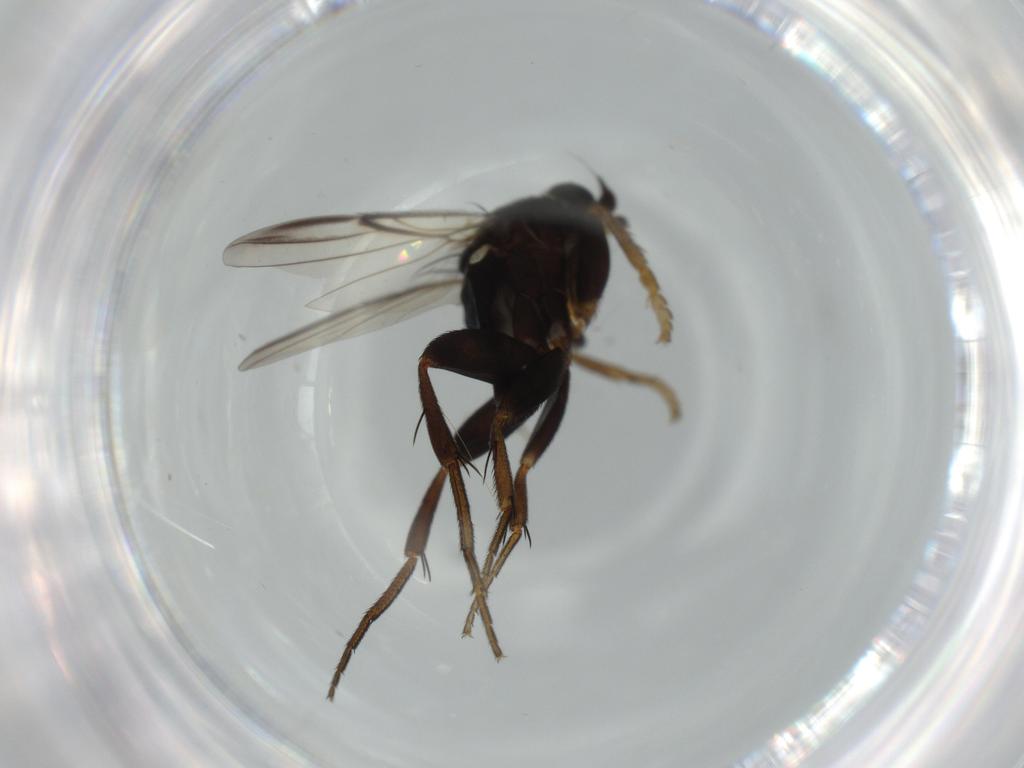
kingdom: Animalia
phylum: Arthropoda
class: Insecta
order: Diptera
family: Phoridae
